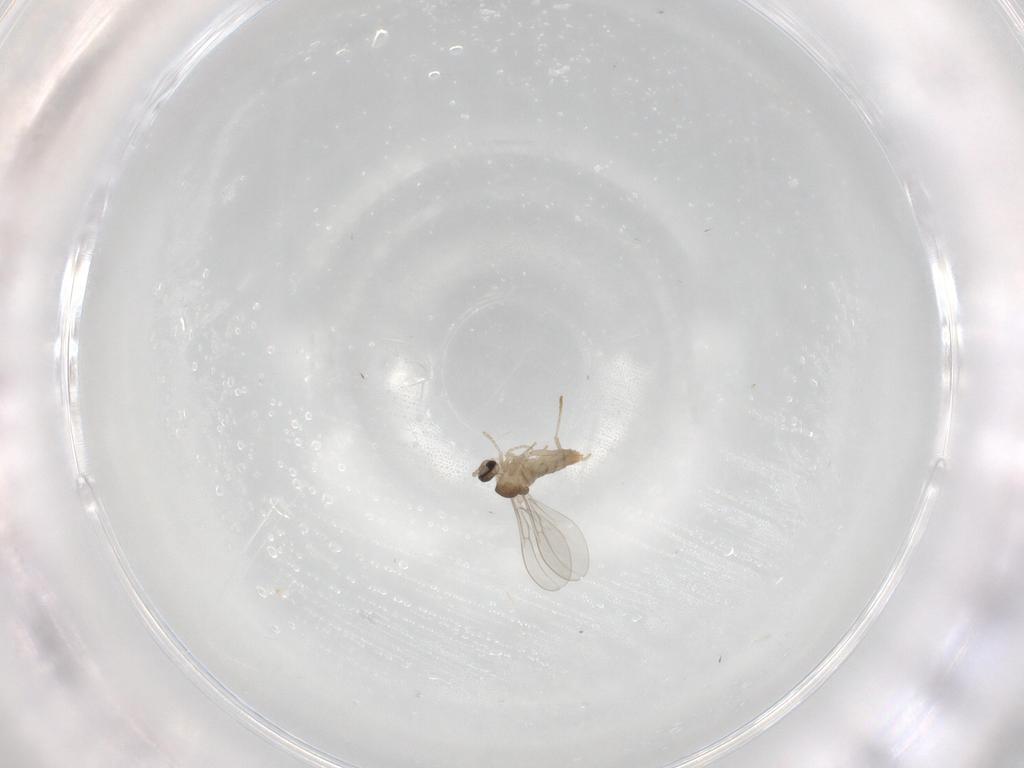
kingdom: Animalia
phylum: Arthropoda
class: Insecta
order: Diptera
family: Cecidomyiidae
